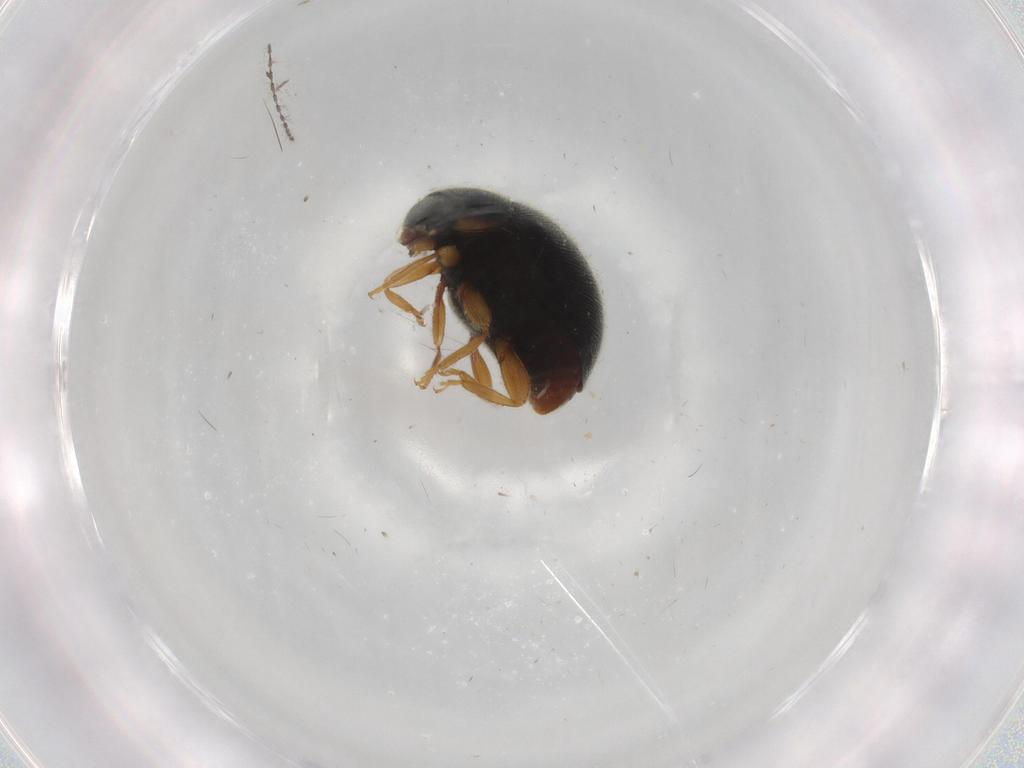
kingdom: Animalia
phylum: Arthropoda
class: Insecta
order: Coleoptera
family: Coccinellidae
